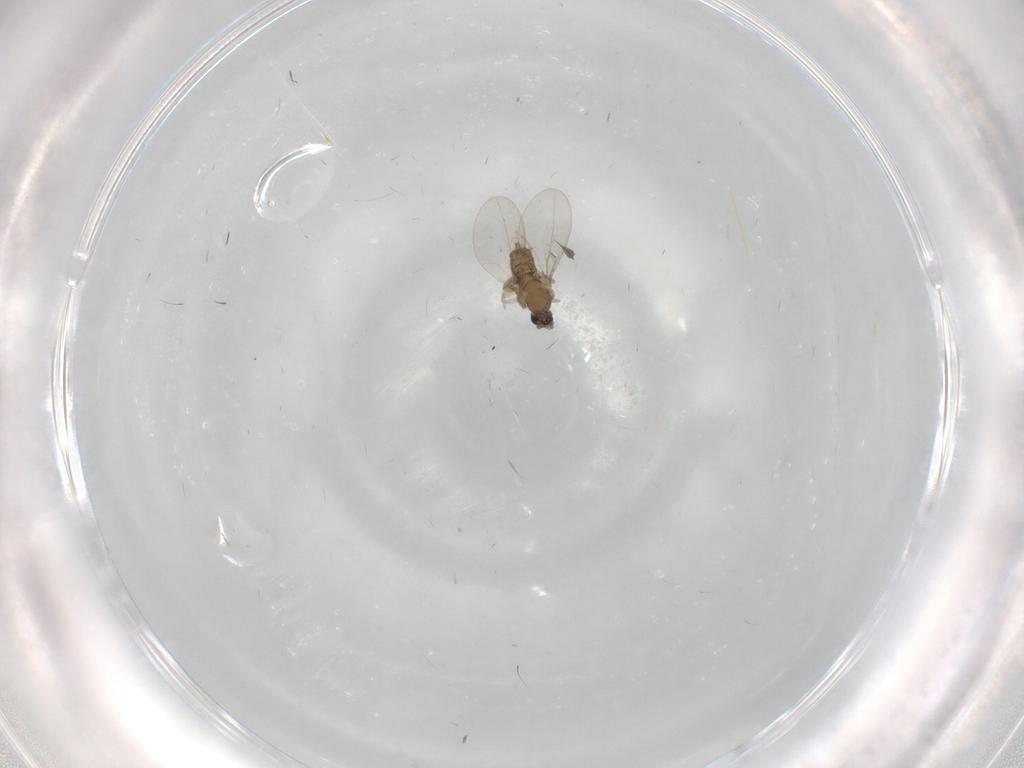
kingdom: Animalia
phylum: Arthropoda
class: Insecta
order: Diptera
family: Cecidomyiidae
